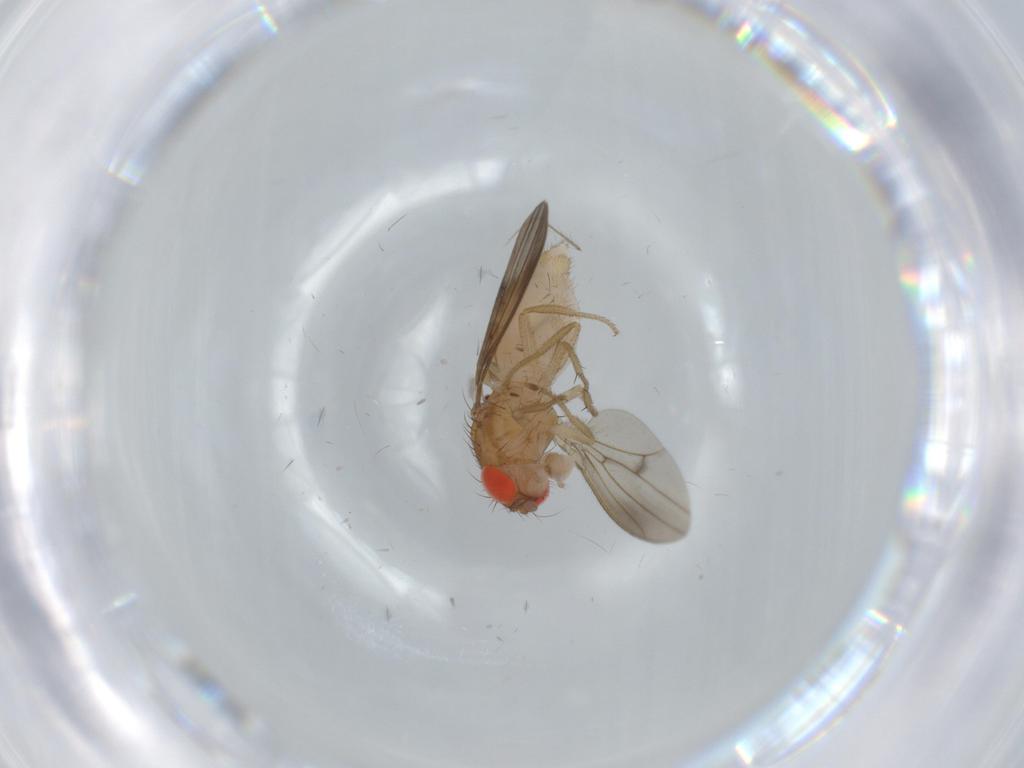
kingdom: Animalia
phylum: Arthropoda
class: Insecta
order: Diptera
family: Drosophilidae
